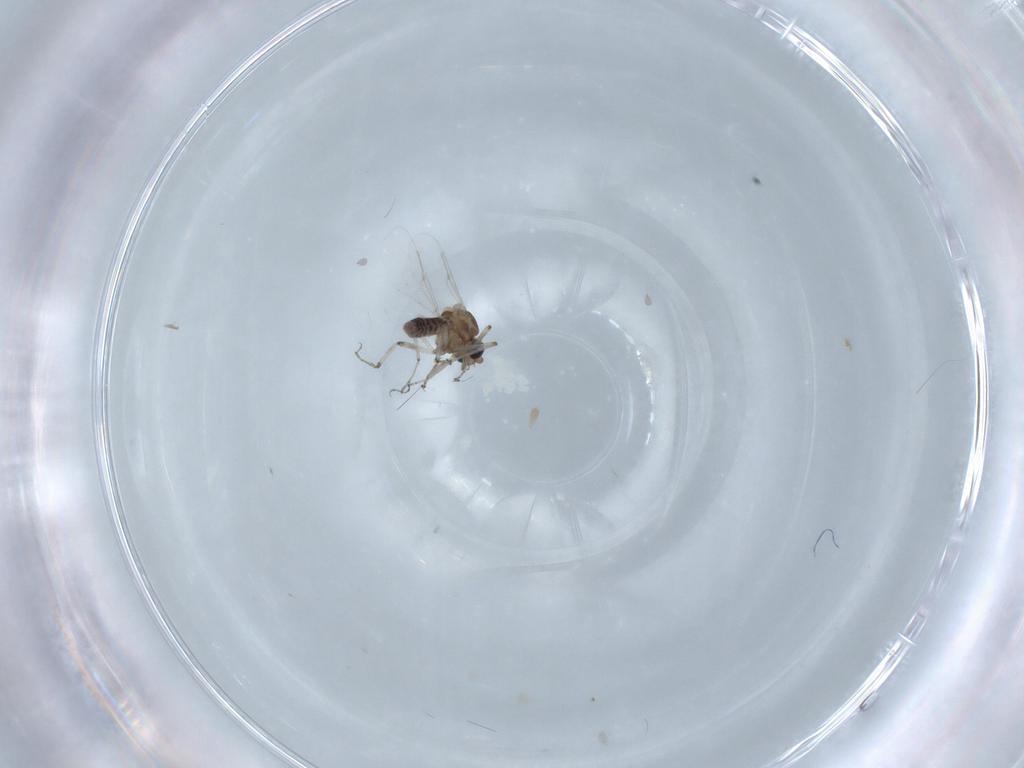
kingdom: Animalia
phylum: Arthropoda
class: Insecta
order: Diptera
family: Ceratopogonidae
